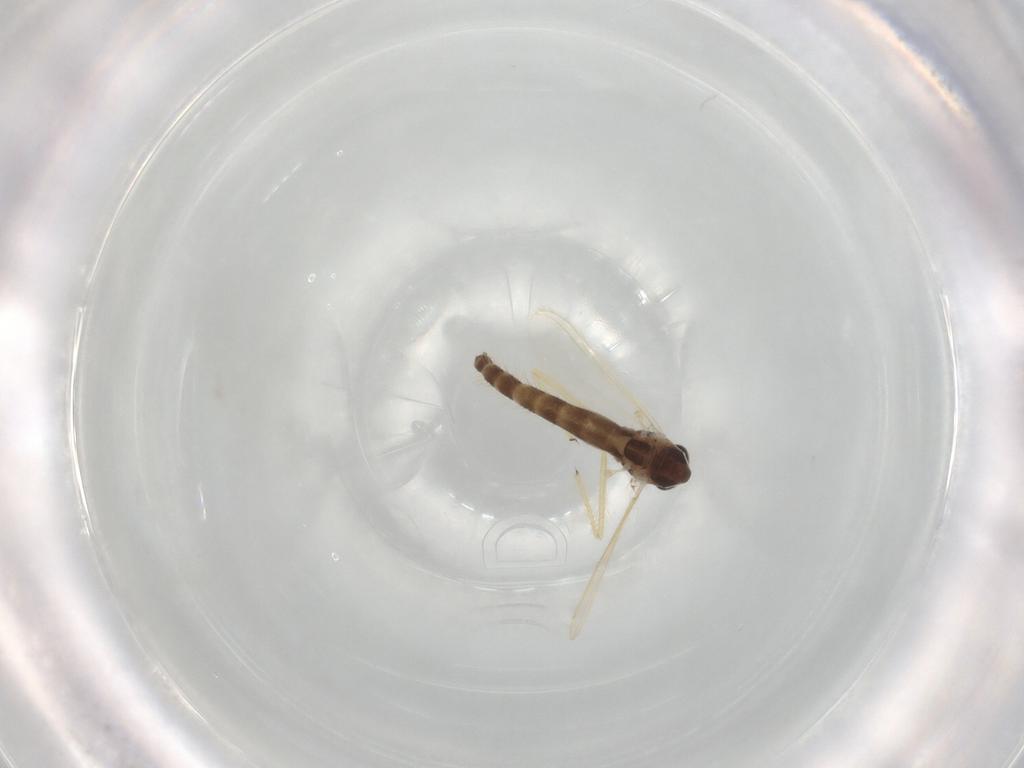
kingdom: Animalia
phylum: Arthropoda
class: Insecta
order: Diptera
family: Chironomidae
